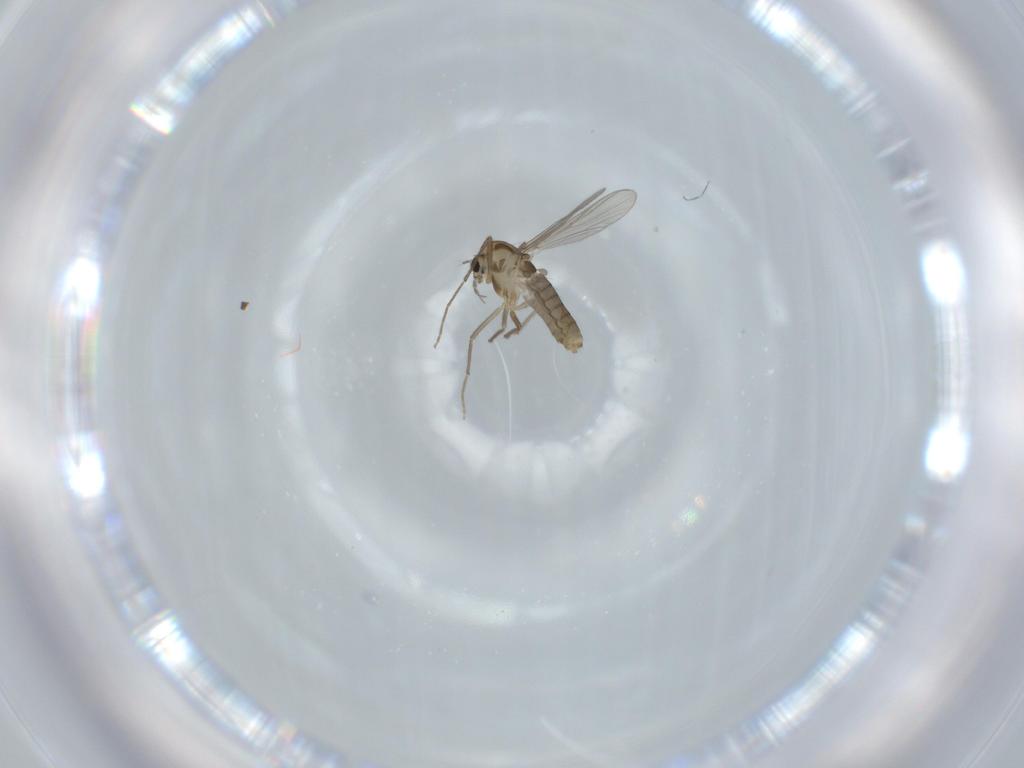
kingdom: Animalia
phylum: Arthropoda
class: Insecta
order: Diptera
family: Chironomidae
